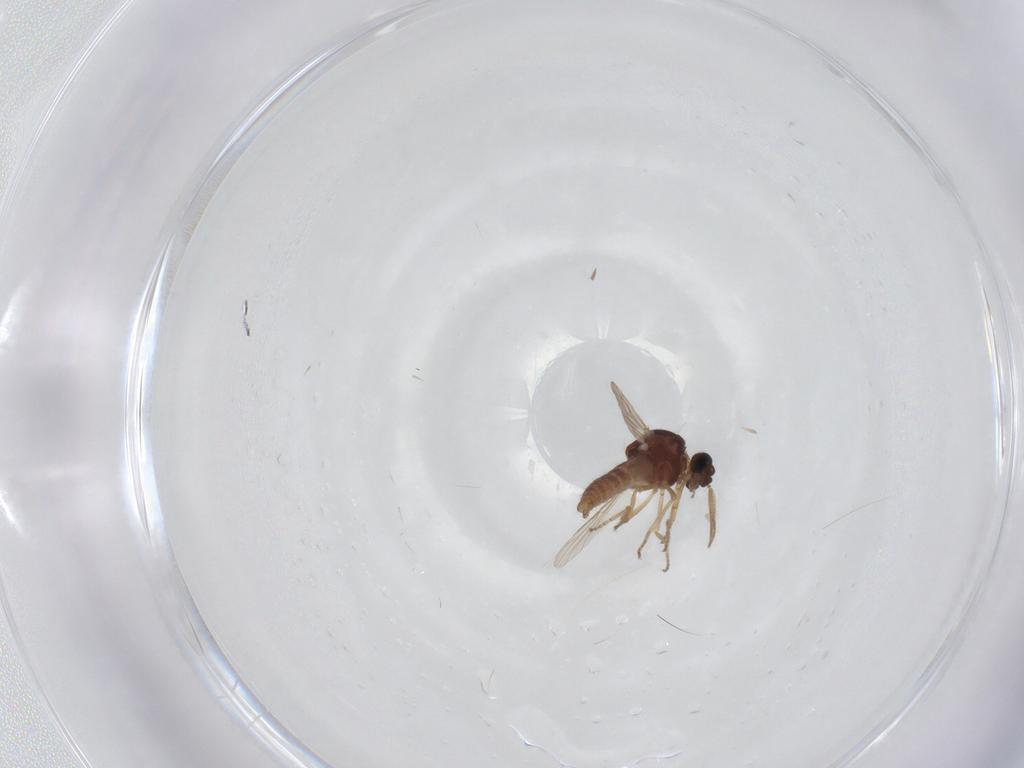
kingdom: Animalia
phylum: Arthropoda
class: Insecta
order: Diptera
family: Ceratopogonidae
